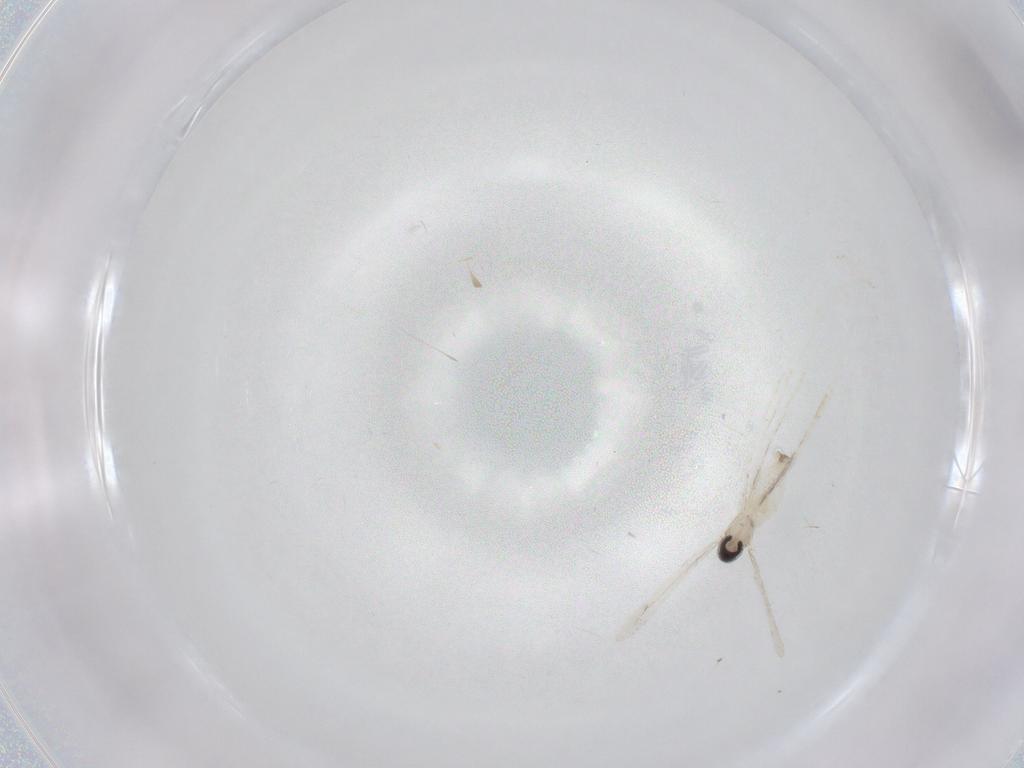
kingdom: Animalia
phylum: Arthropoda
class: Insecta
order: Diptera
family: Cecidomyiidae
